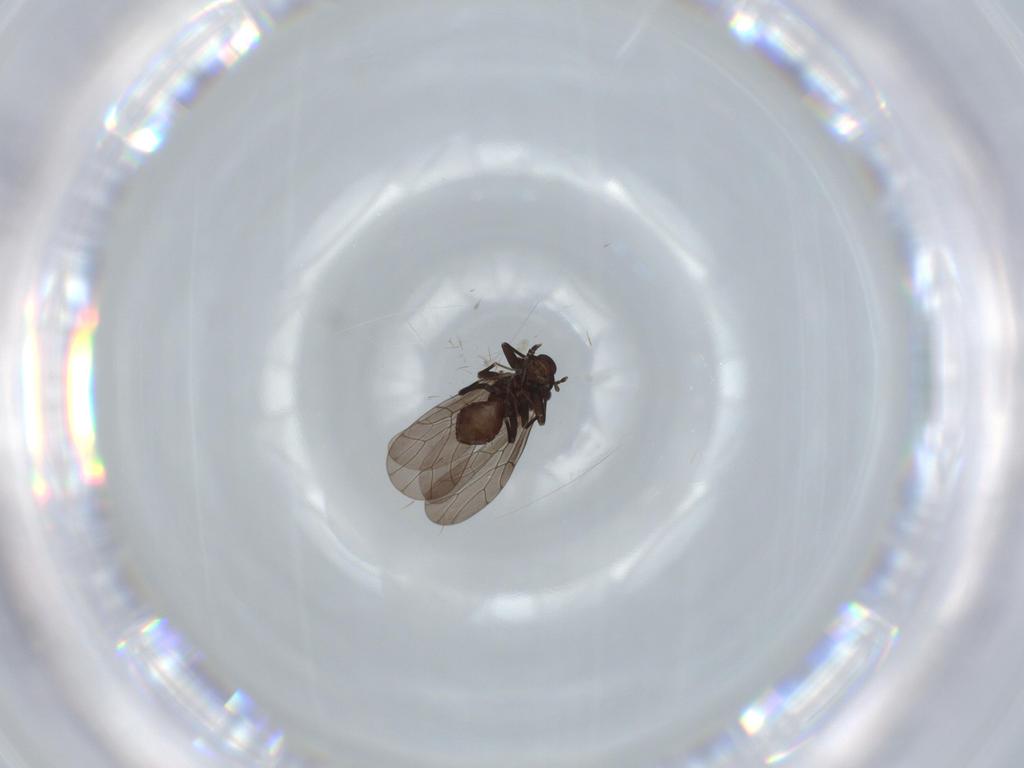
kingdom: Animalia
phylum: Arthropoda
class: Insecta
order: Psocodea
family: Lepidopsocidae
